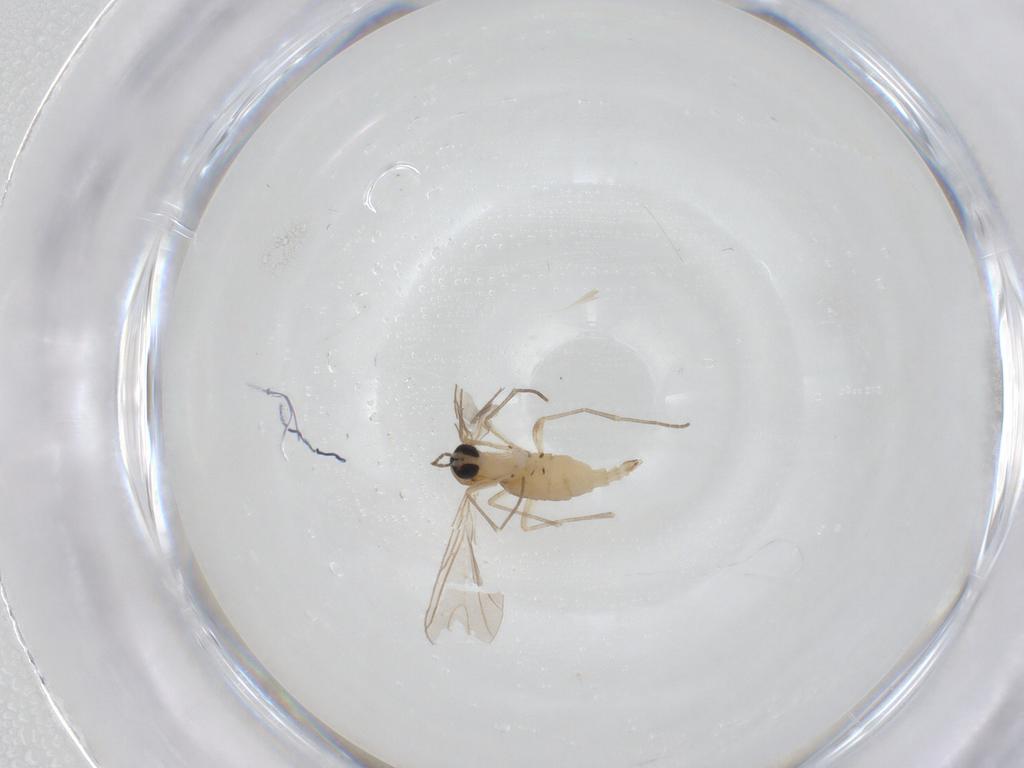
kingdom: Animalia
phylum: Arthropoda
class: Insecta
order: Diptera
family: Sciaridae
